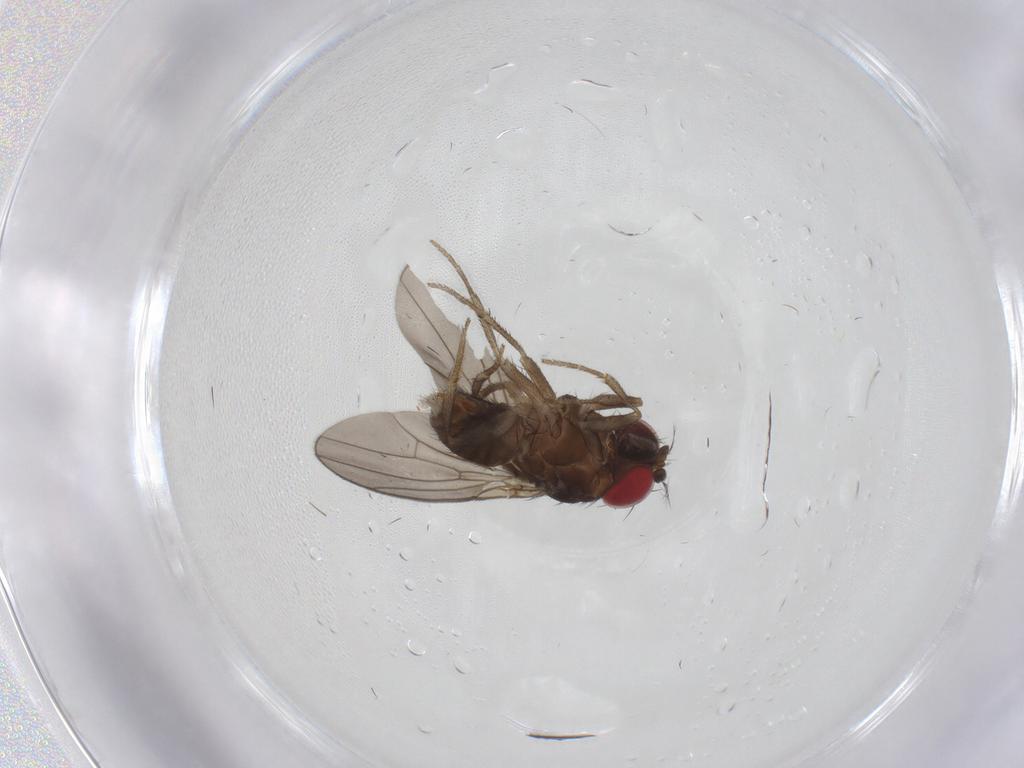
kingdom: Animalia
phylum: Arthropoda
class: Insecta
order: Diptera
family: Drosophilidae
